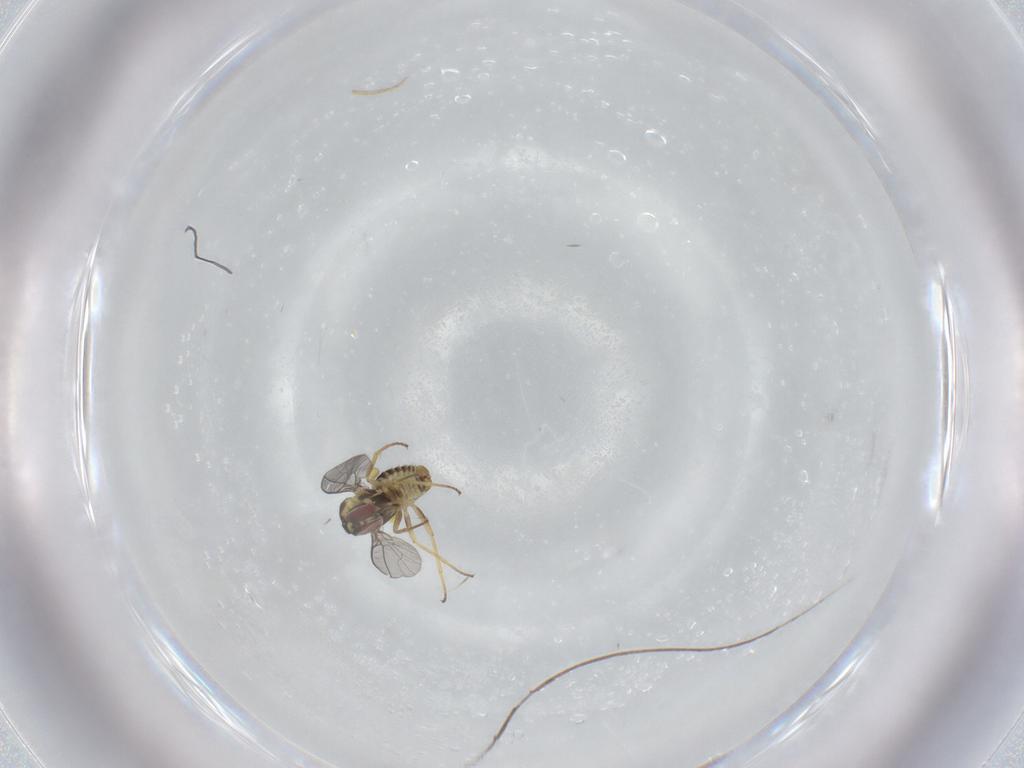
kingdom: Animalia
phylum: Arthropoda
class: Insecta
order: Diptera
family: Bombyliidae
